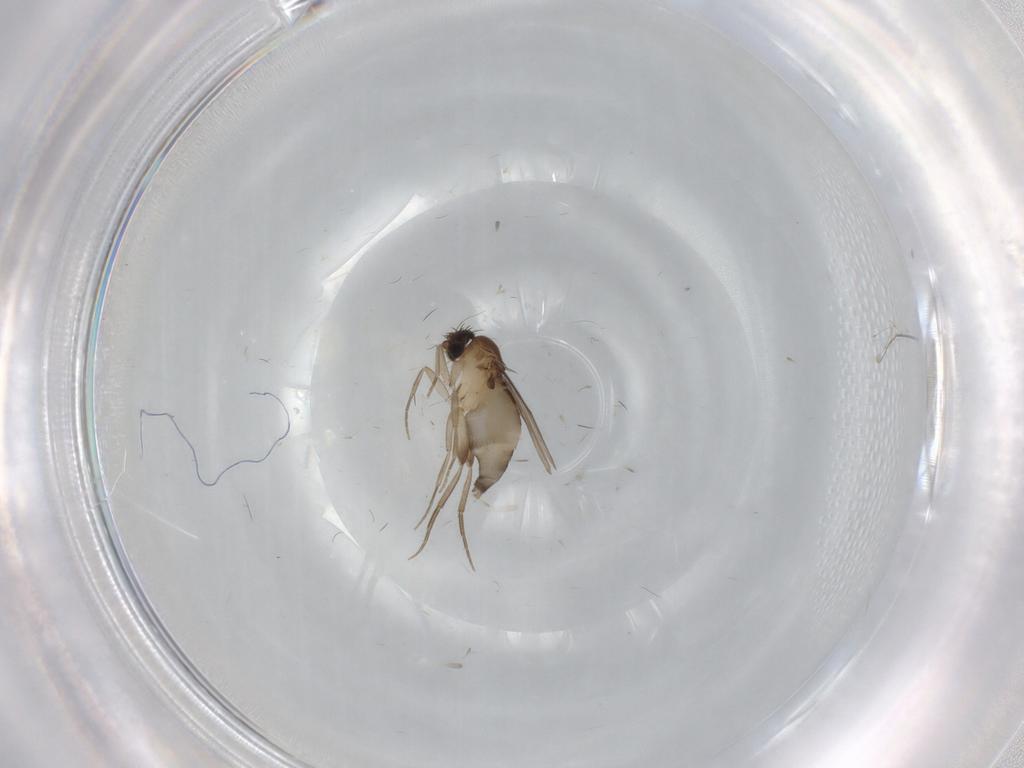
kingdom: Animalia
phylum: Arthropoda
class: Insecta
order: Diptera
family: Phoridae
